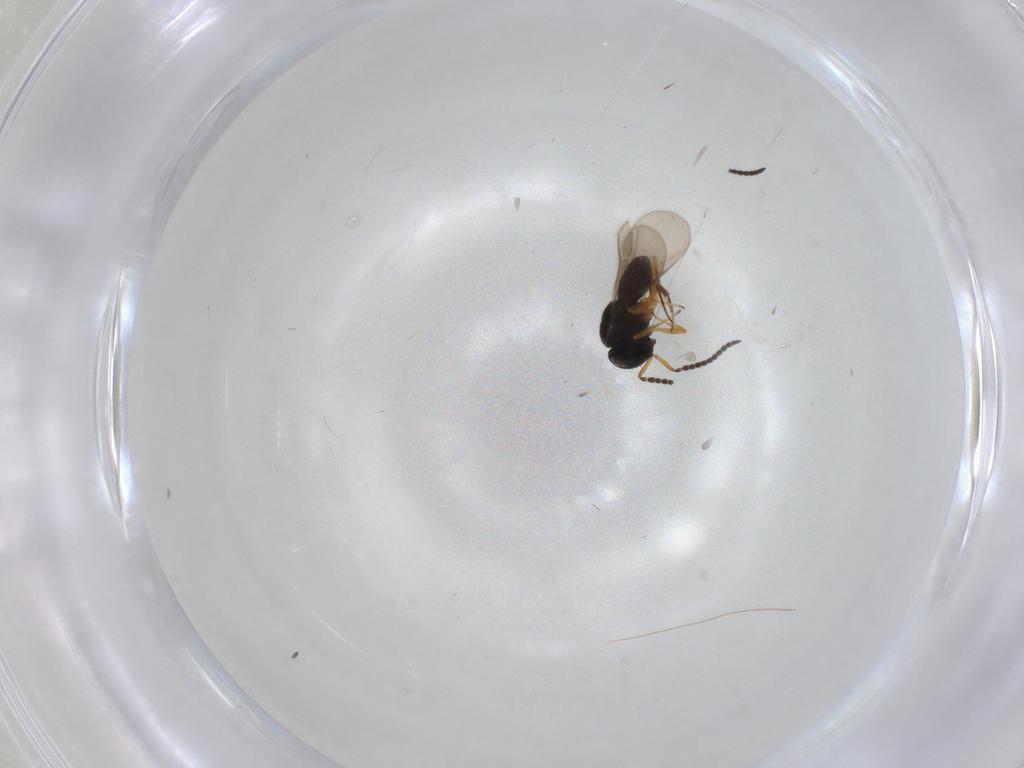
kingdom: Animalia
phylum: Arthropoda
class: Insecta
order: Hymenoptera
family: Scelionidae
